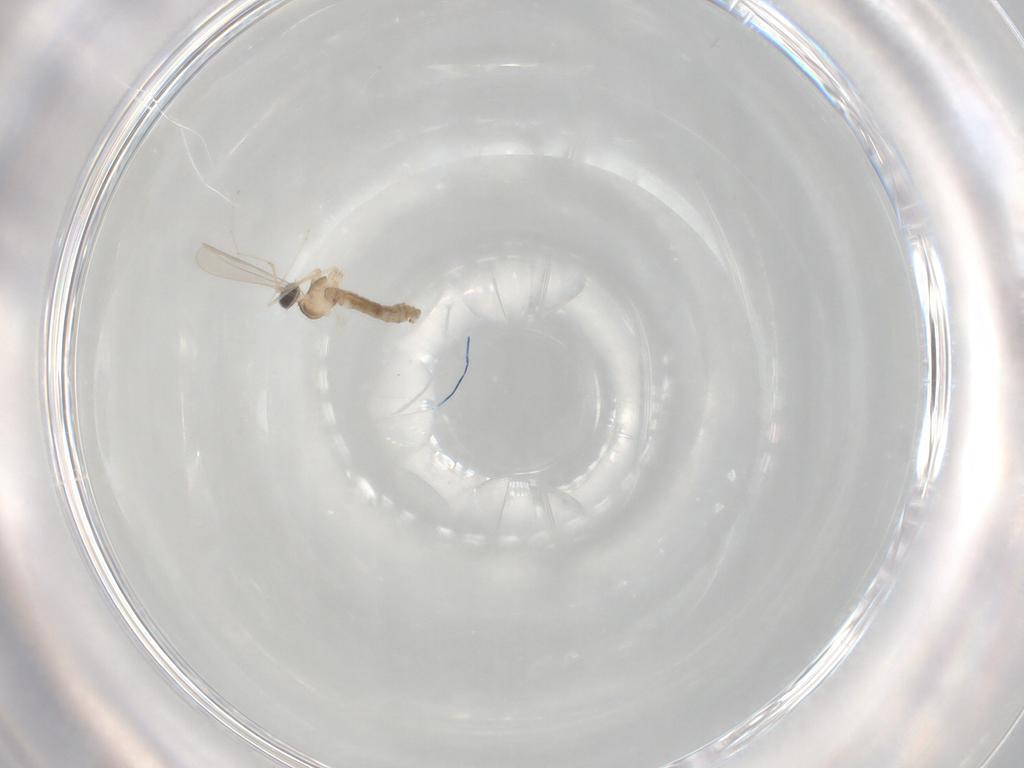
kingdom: Animalia
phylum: Arthropoda
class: Insecta
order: Diptera
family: Cecidomyiidae
